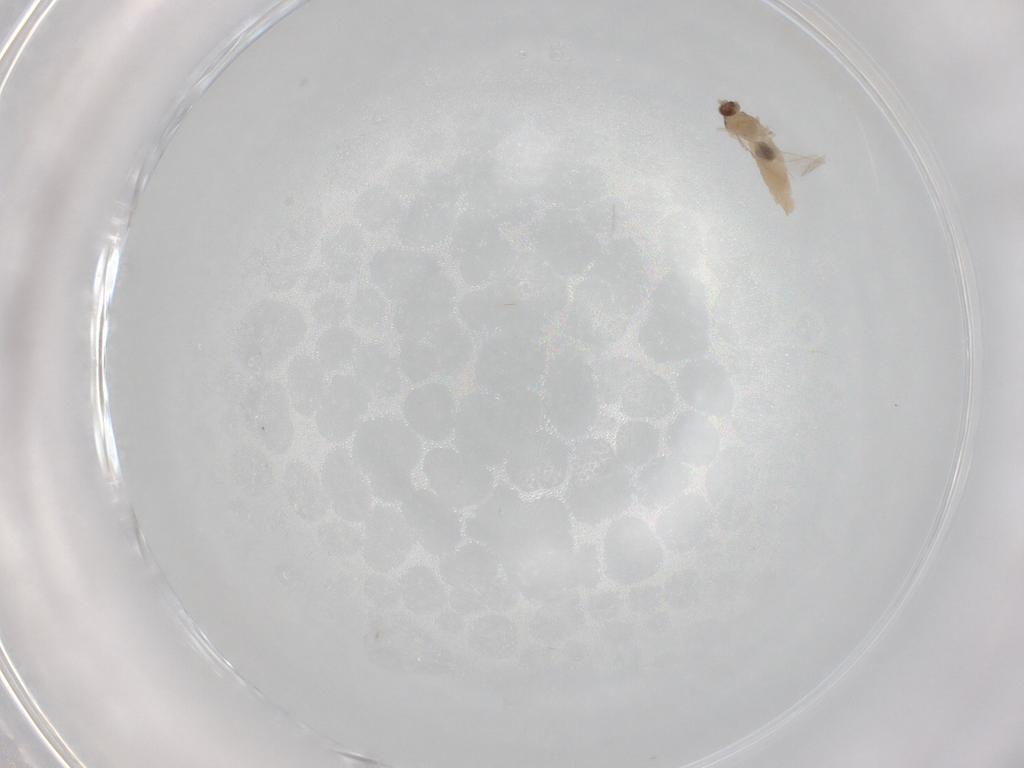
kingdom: Animalia
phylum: Arthropoda
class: Insecta
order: Diptera
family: Cecidomyiidae
